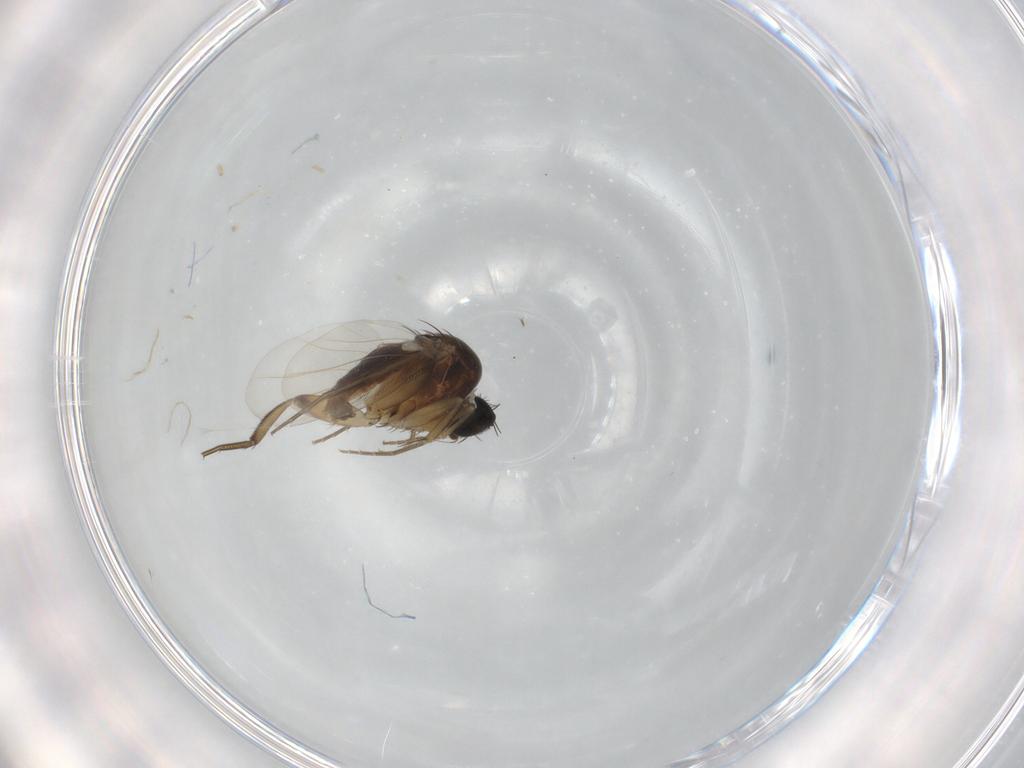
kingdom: Animalia
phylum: Arthropoda
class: Insecta
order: Diptera
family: Phoridae
